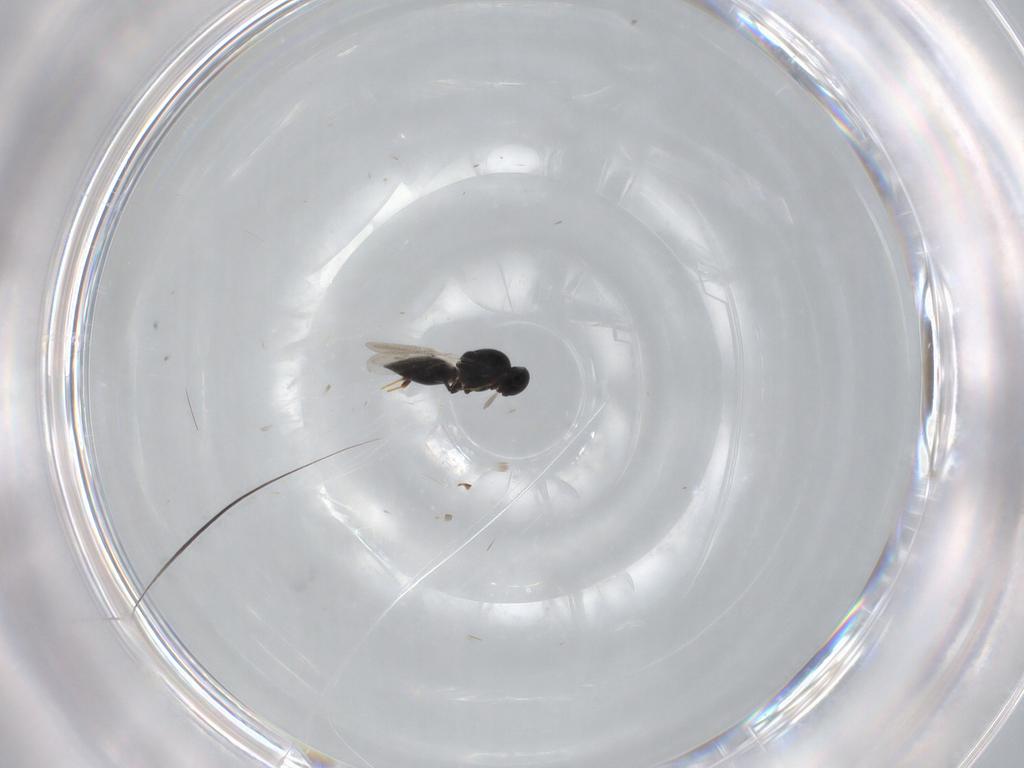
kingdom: Animalia
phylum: Arthropoda
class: Insecta
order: Hymenoptera
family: Platygastridae
